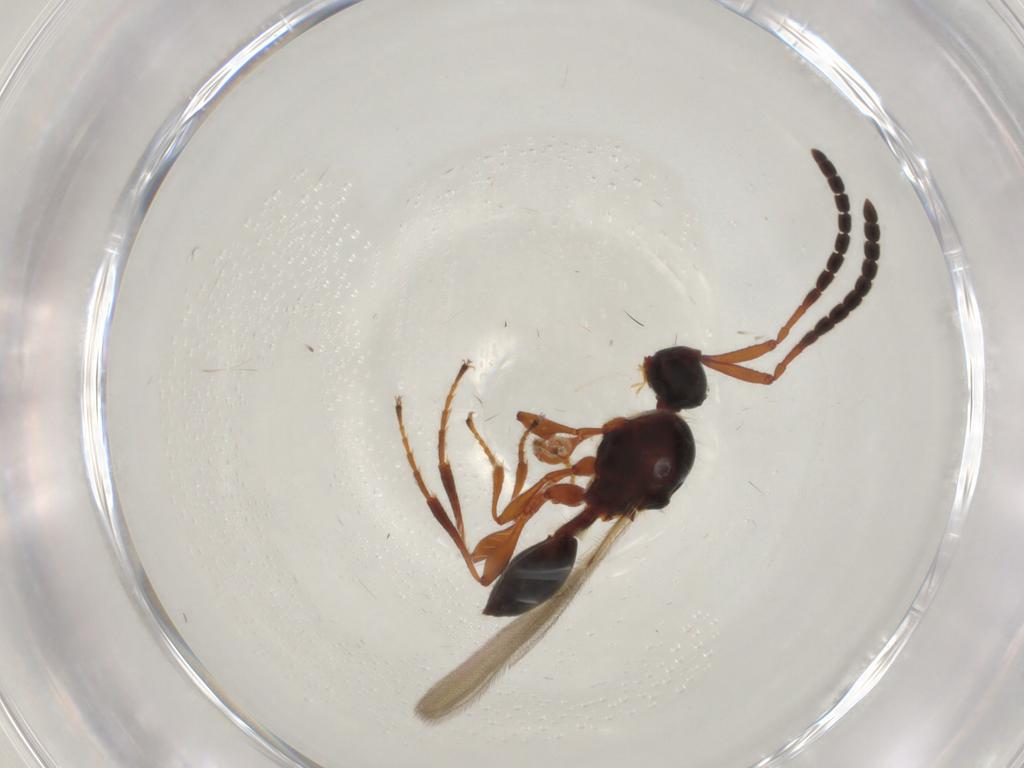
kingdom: Animalia
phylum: Arthropoda
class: Insecta
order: Hymenoptera
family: Diapriidae
